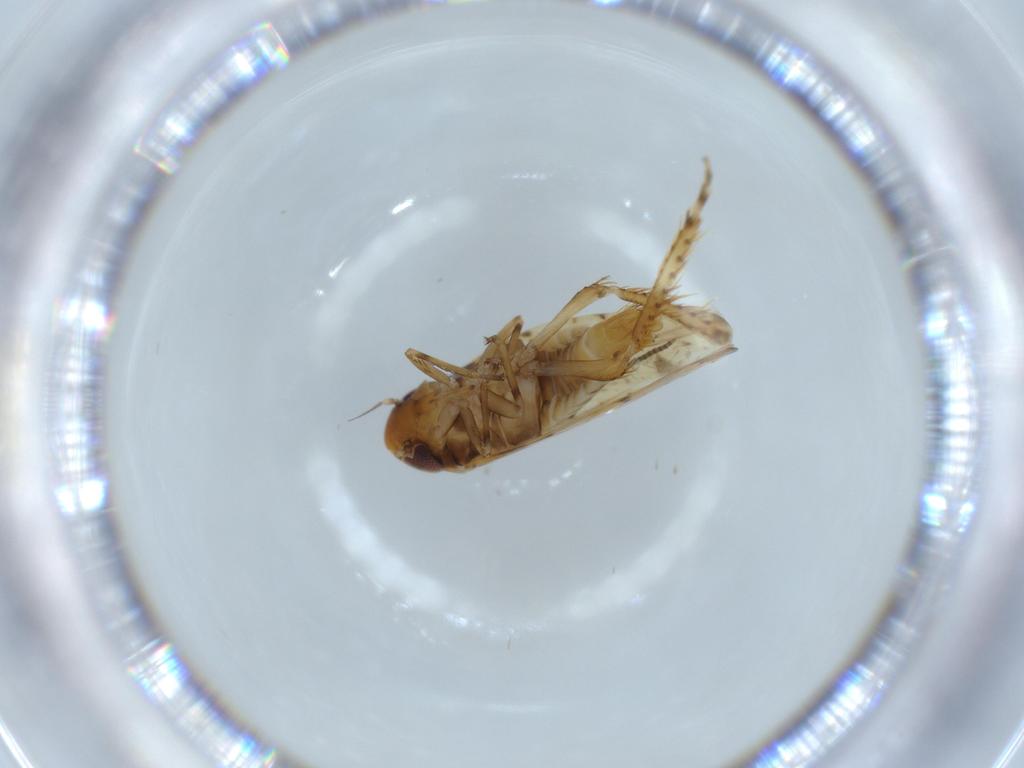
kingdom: Animalia
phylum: Arthropoda
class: Insecta
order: Hemiptera
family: Cicadellidae
